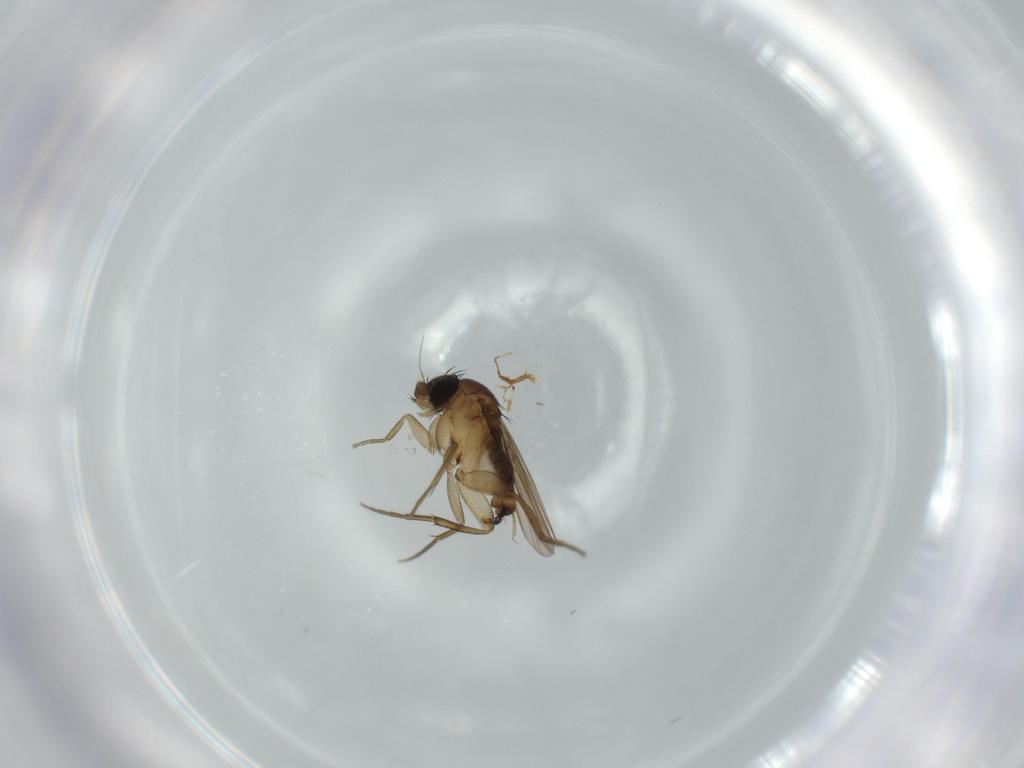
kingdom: Animalia
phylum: Arthropoda
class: Insecta
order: Diptera
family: Phoridae
